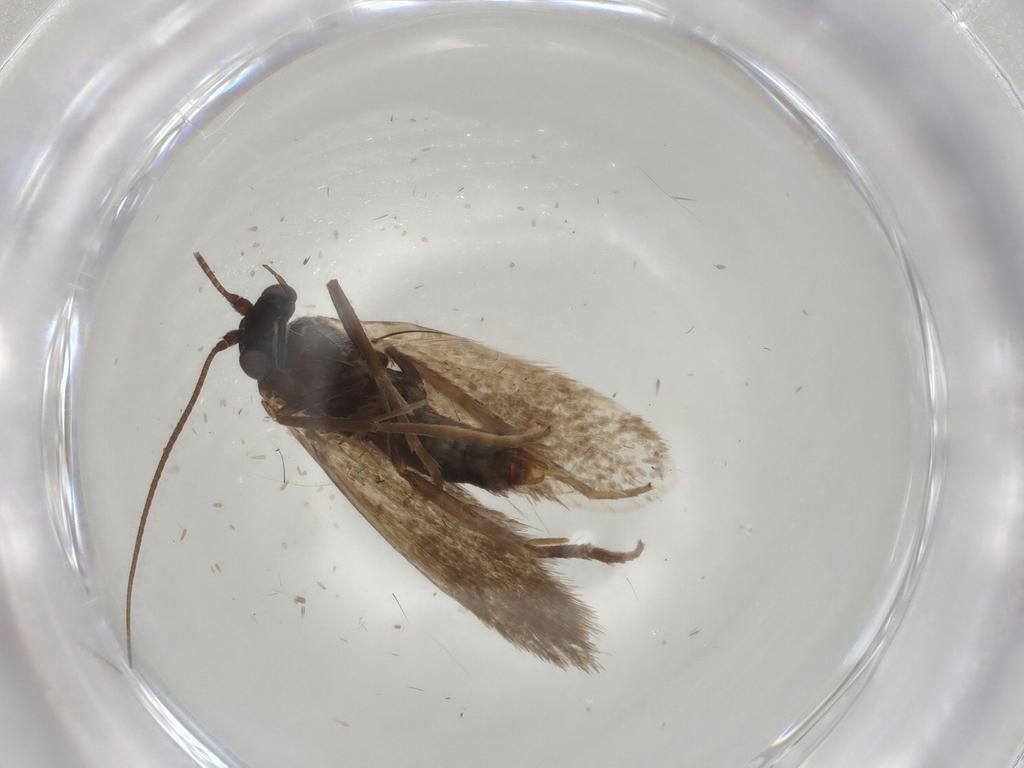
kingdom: Animalia
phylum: Arthropoda
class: Insecta
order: Lepidoptera
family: Adelidae
